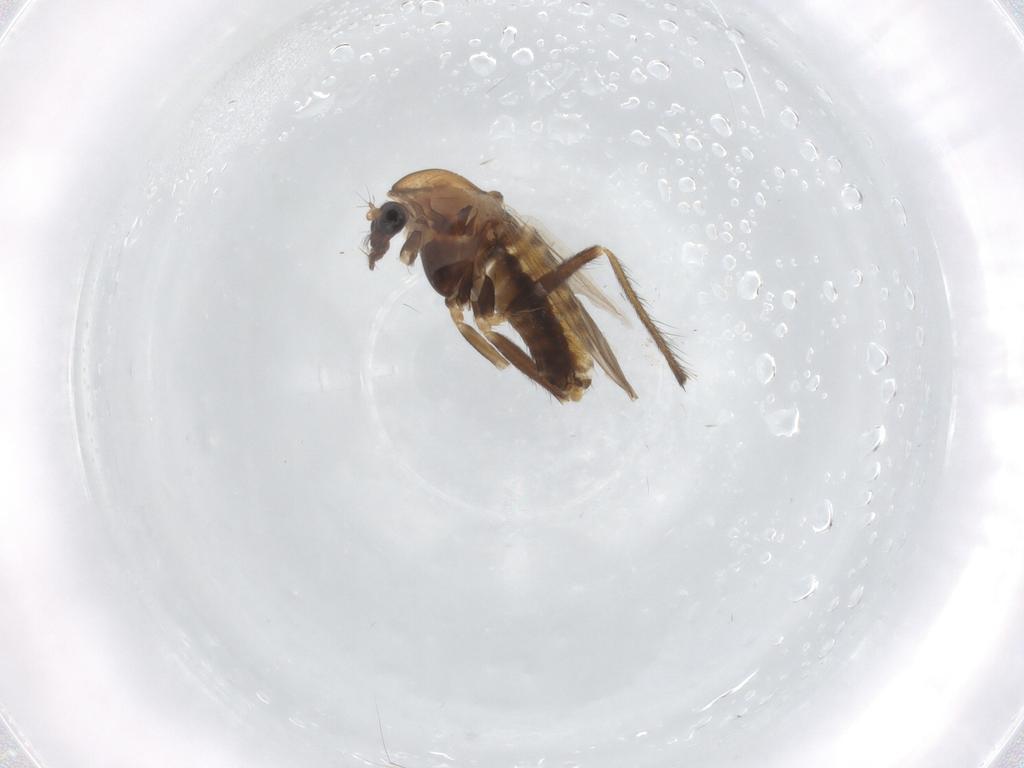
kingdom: Animalia
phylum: Arthropoda
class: Insecta
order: Diptera
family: Chironomidae
